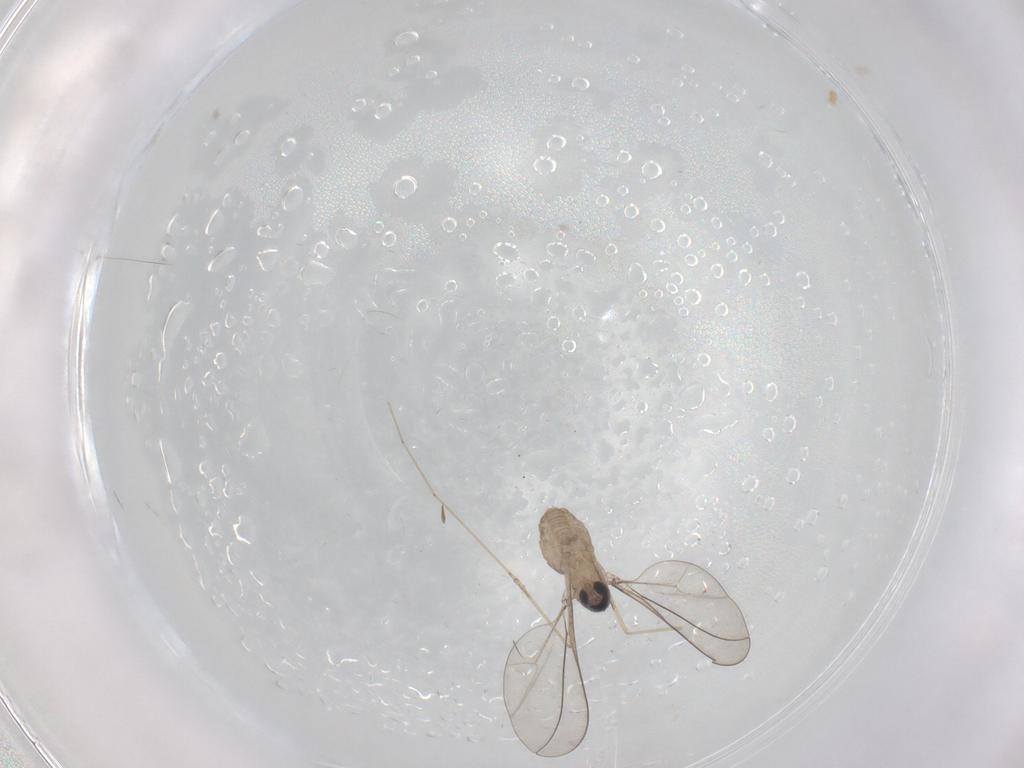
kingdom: Animalia
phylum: Arthropoda
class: Insecta
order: Diptera
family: Cecidomyiidae
